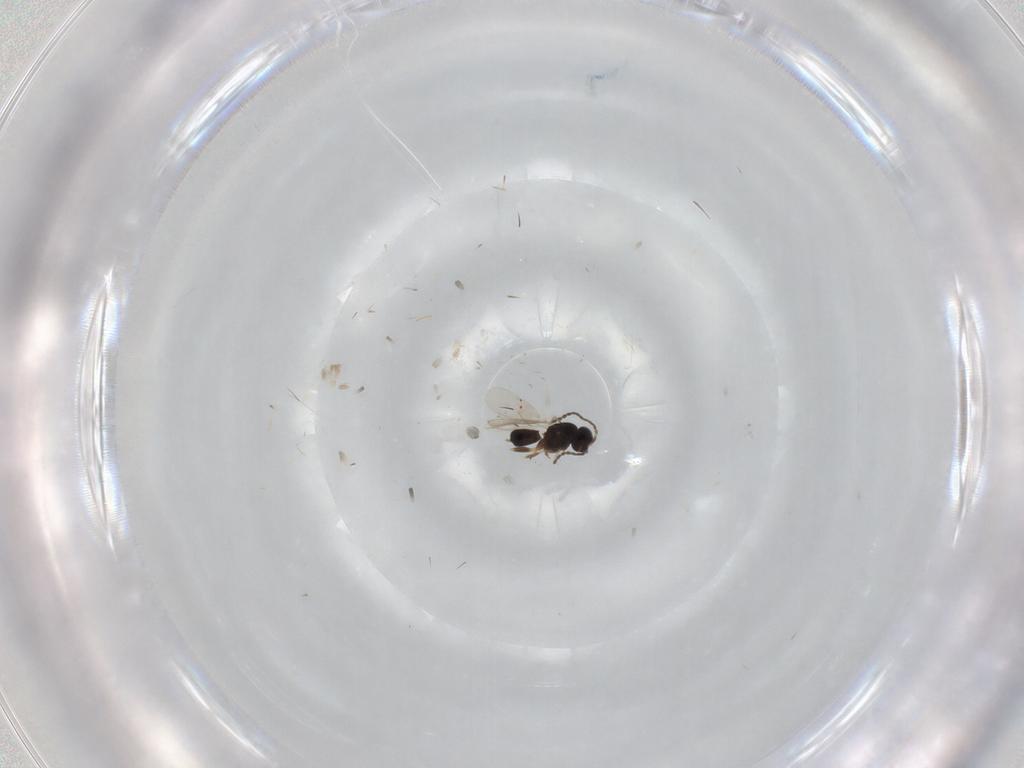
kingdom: Animalia
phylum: Arthropoda
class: Insecta
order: Hymenoptera
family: Scelionidae
